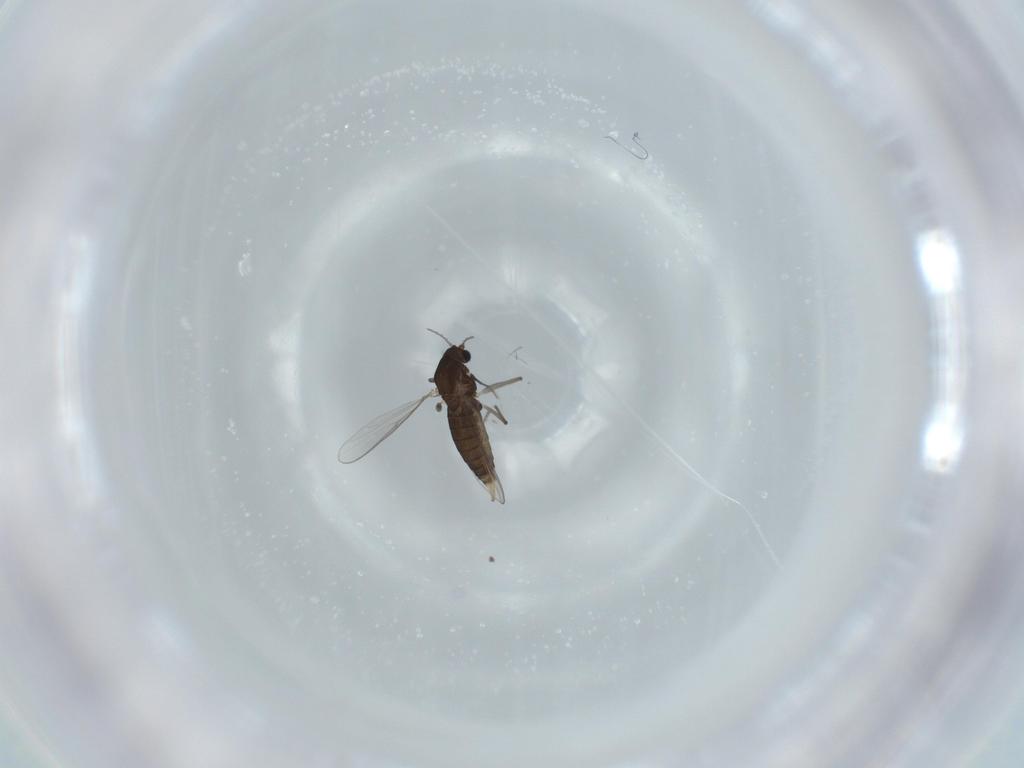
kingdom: Animalia
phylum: Arthropoda
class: Insecta
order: Diptera
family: Chironomidae
